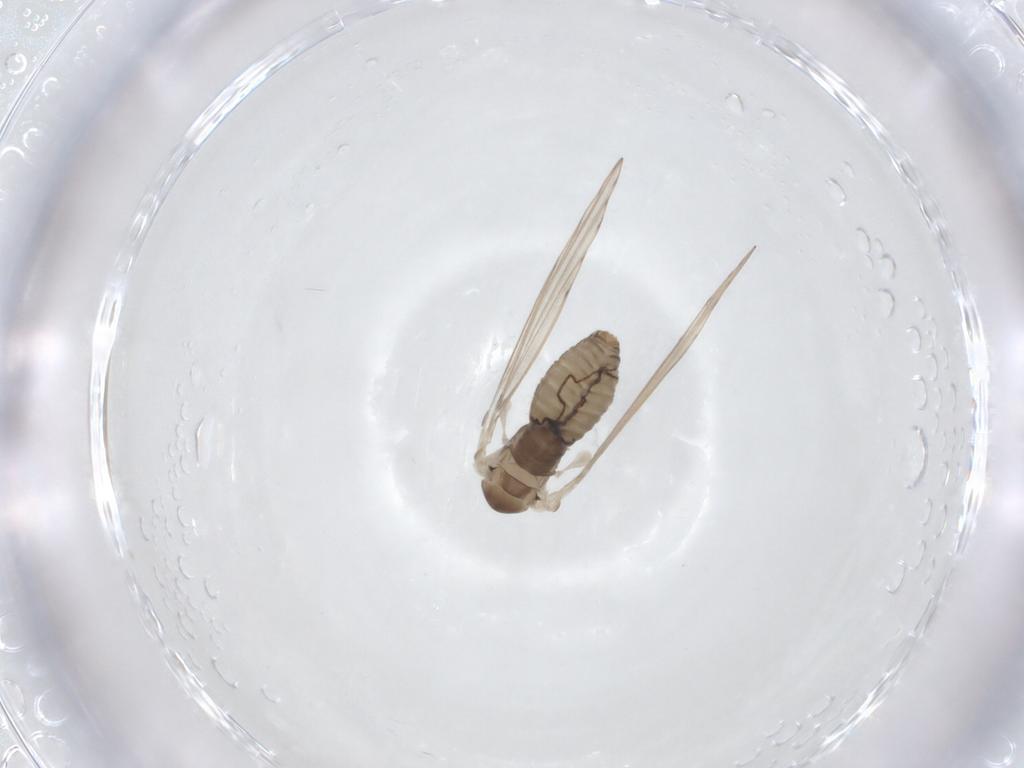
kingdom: Animalia
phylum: Arthropoda
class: Insecta
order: Diptera
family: Psychodidae
